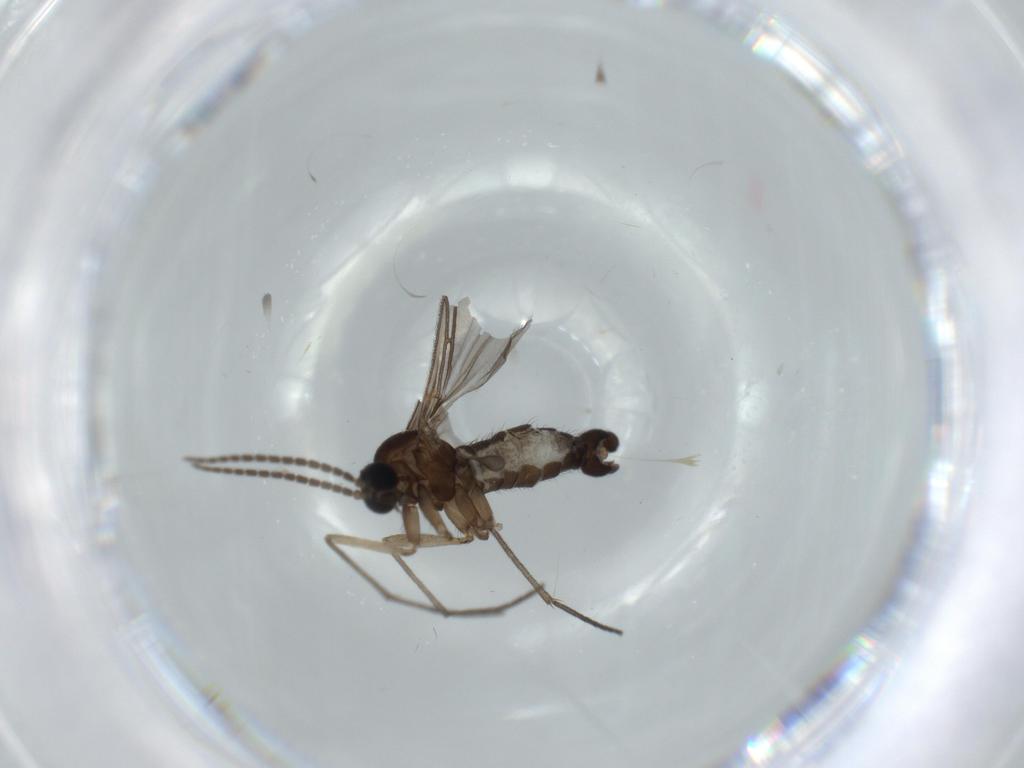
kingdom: Animalia
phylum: Arthropoda
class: Insecta
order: Diptera
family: Sciaridae
